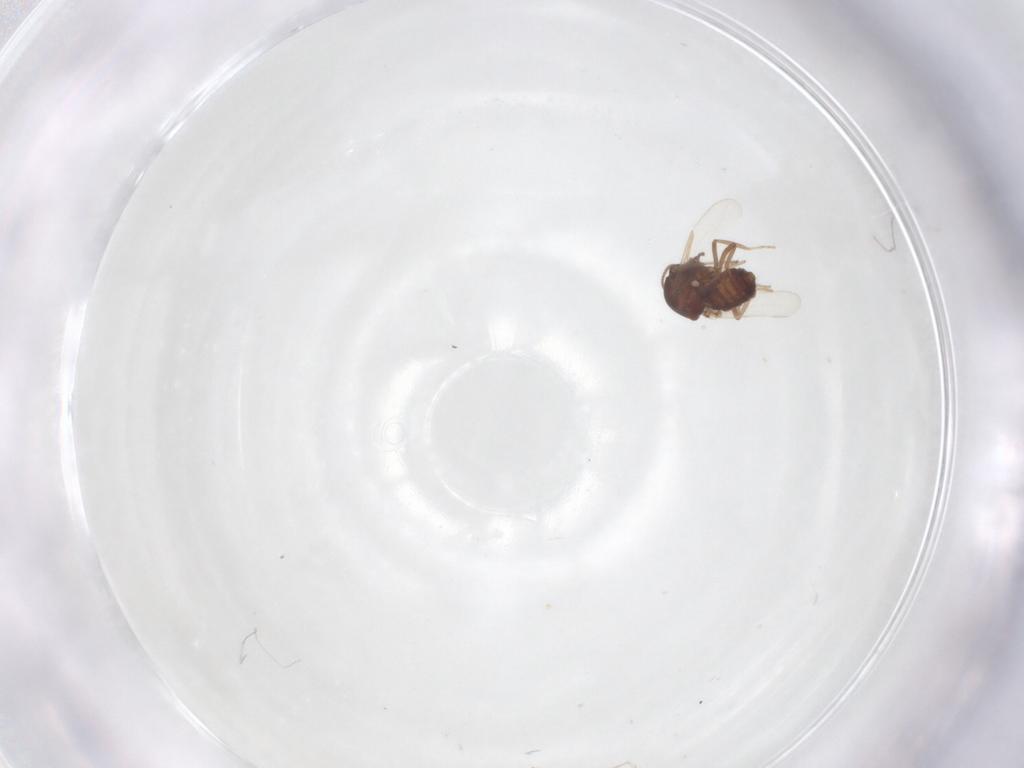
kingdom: Animalia
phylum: Arthropoda
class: Insecta
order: Diptera
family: Ceratopogonidae
